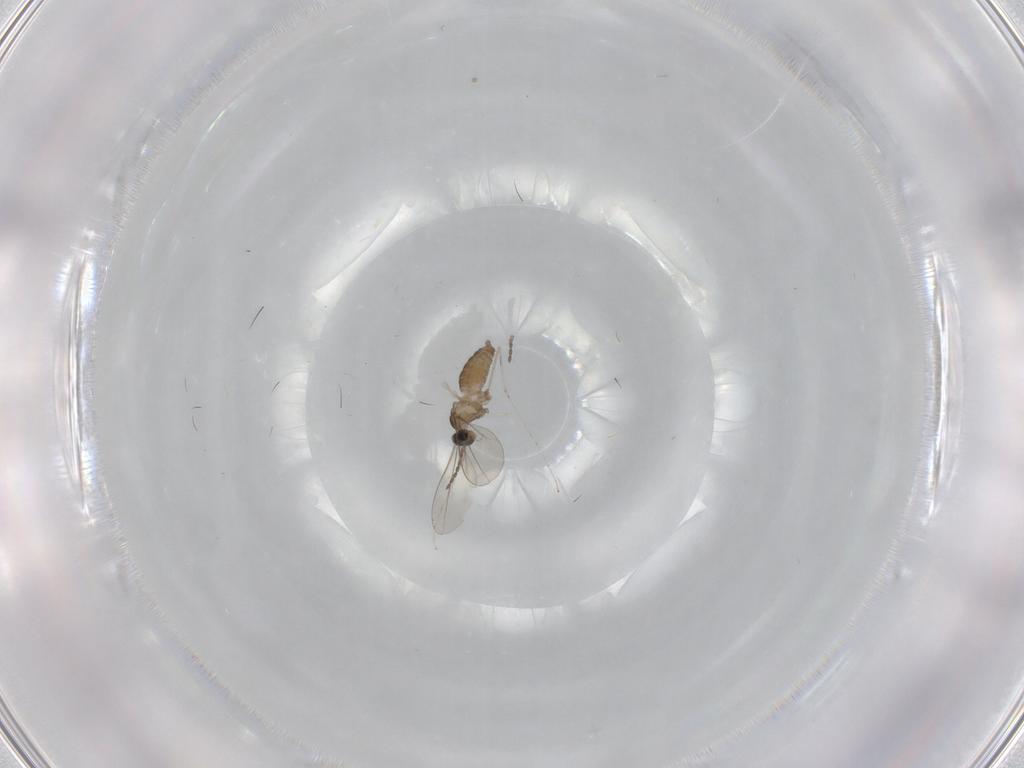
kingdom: Animalia
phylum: Arthropoda
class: Insecta
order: Diptera
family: Cecidomyiidae
